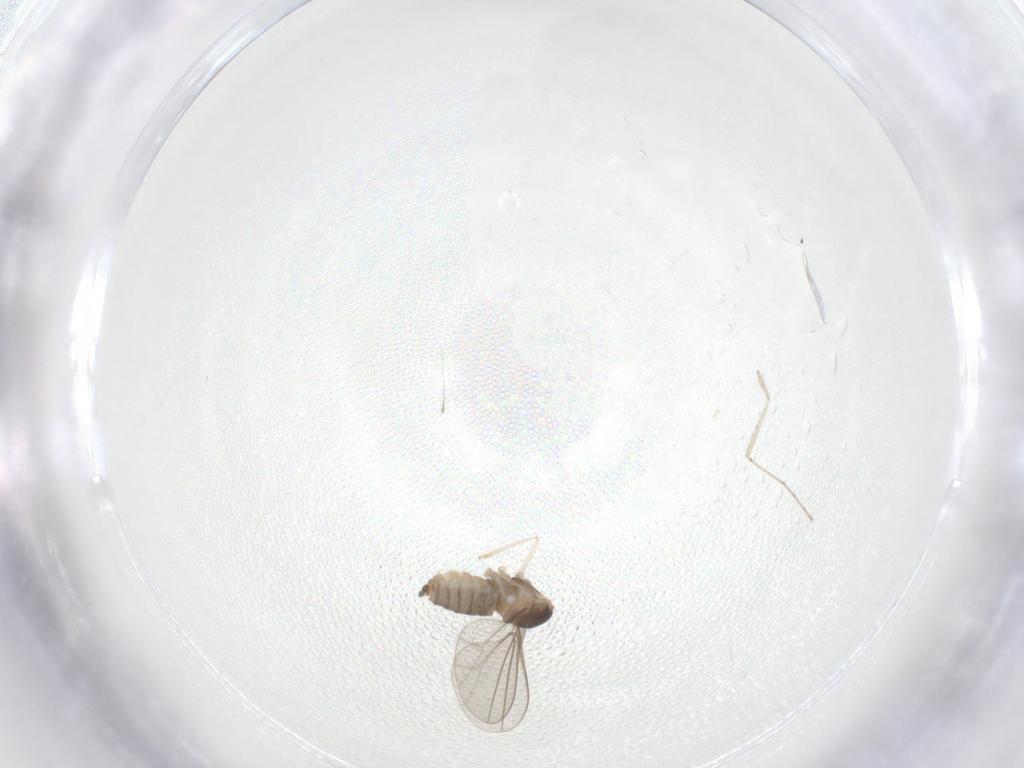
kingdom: Animalia
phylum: Arthropoda
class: Insecta
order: Diptera
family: Cecidomyiidae
